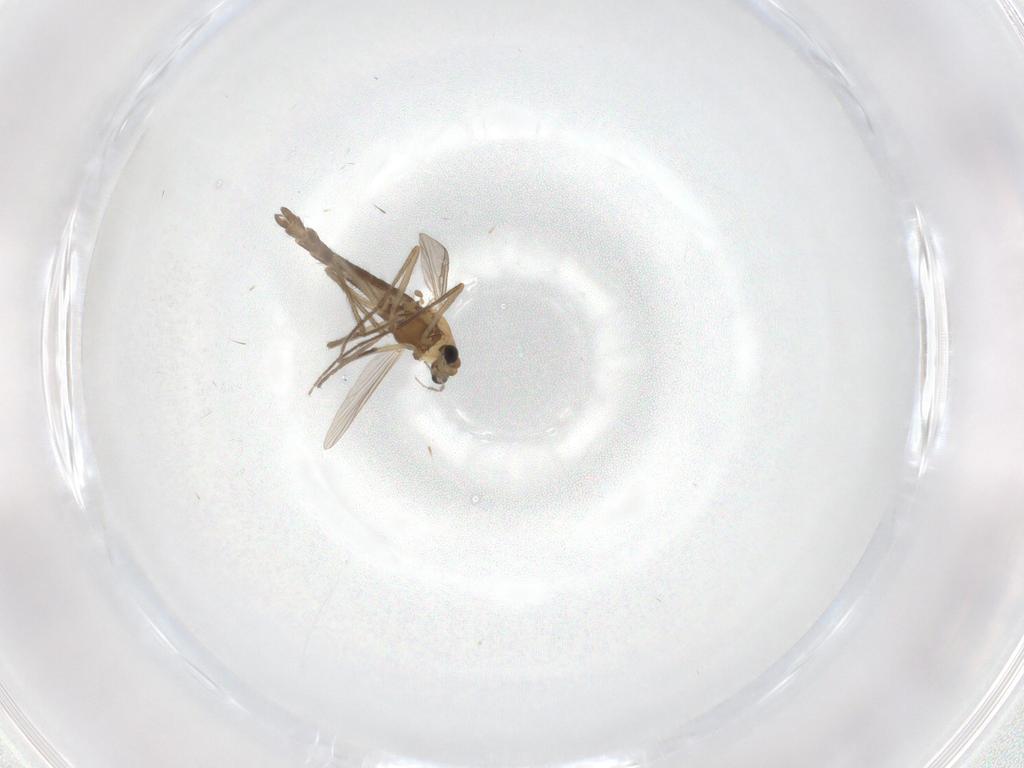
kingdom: Animalia
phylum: Arthropoda
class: Insecta
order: Diptera
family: Chironomidae
